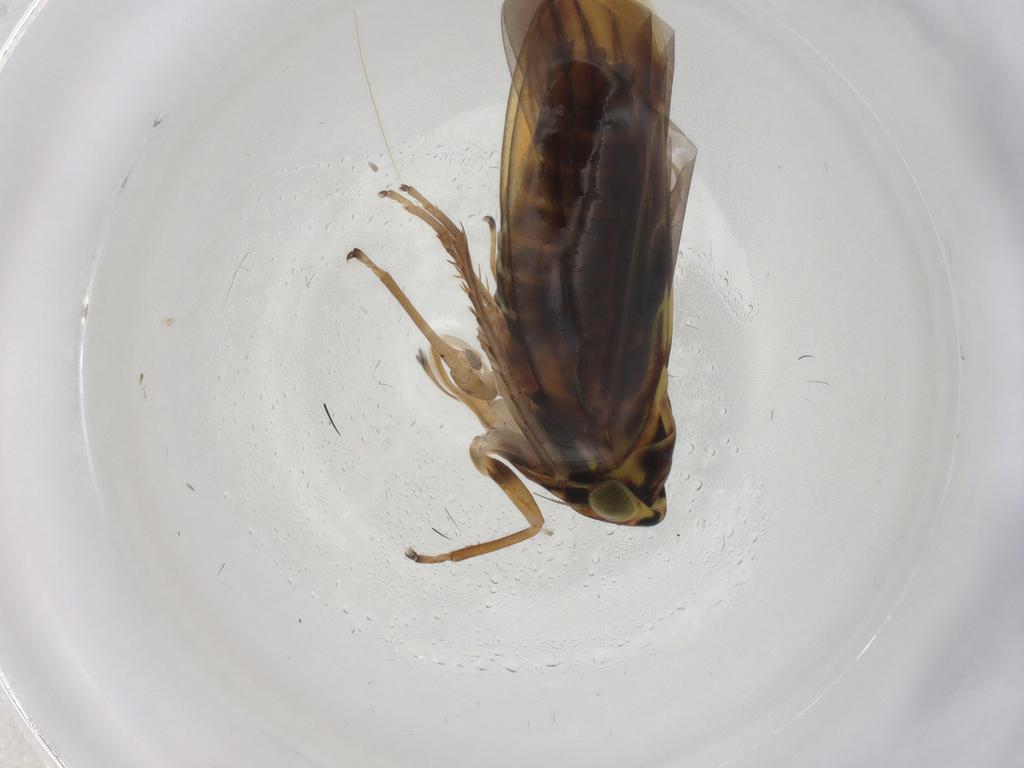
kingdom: Animalia
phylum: Arthropoda
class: Insecta
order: Hemiptera
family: Cicadellidae
